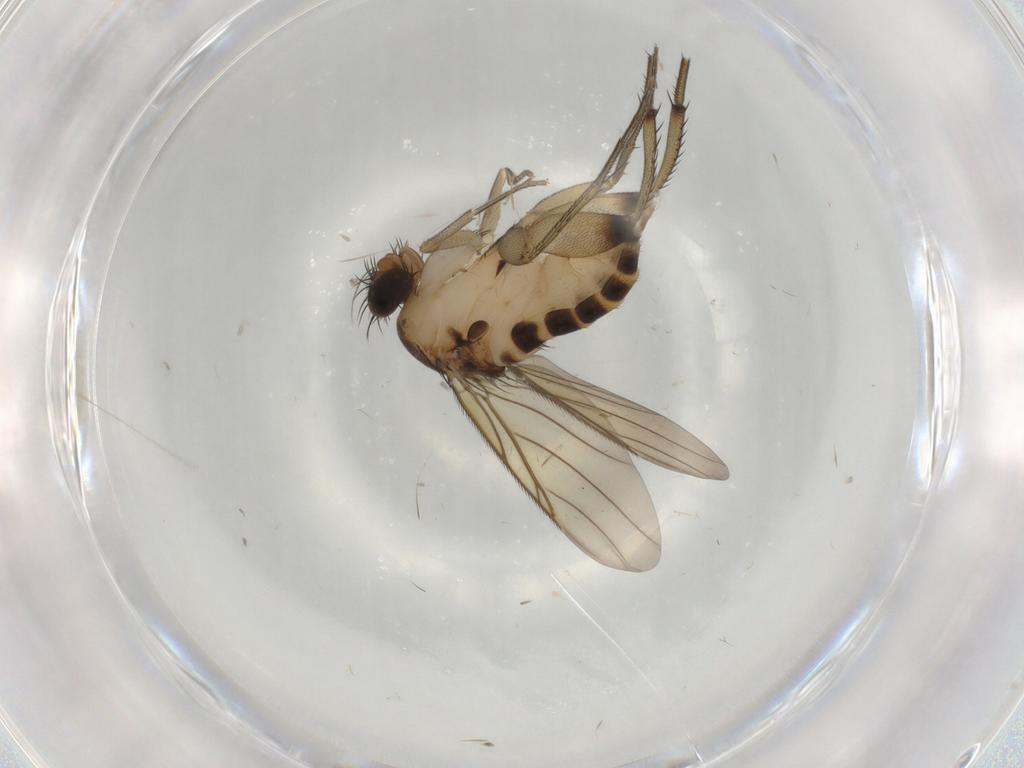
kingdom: Animalia
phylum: Arthropoda
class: Insecta
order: Diptera
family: Phoridae
